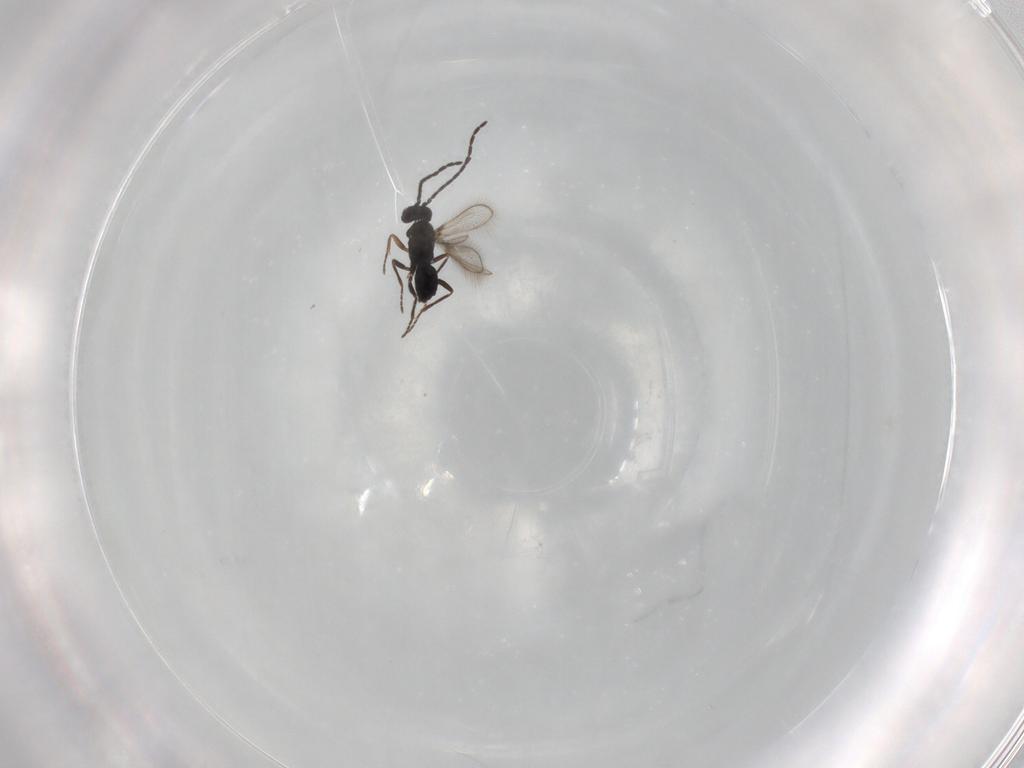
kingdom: Animalia
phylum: Arthropoda
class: Insecta
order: Hymenoptera
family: Mymaridae
